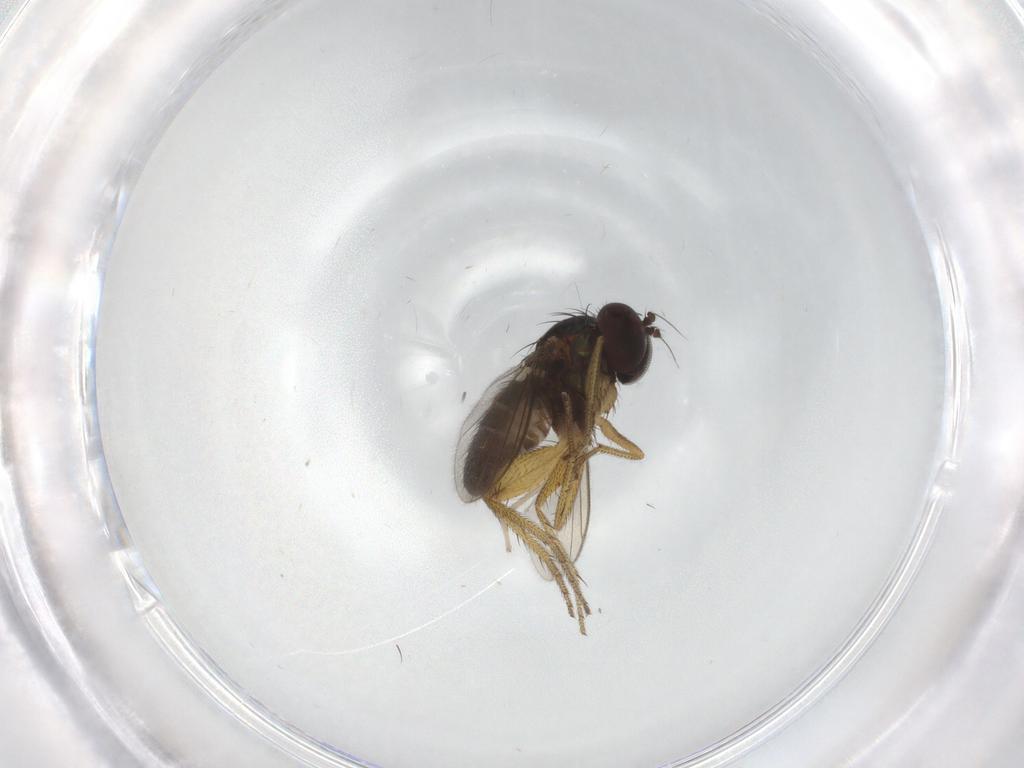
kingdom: Animalia
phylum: Arthropoda
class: Insecta
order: Diptera
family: Chironomidae
